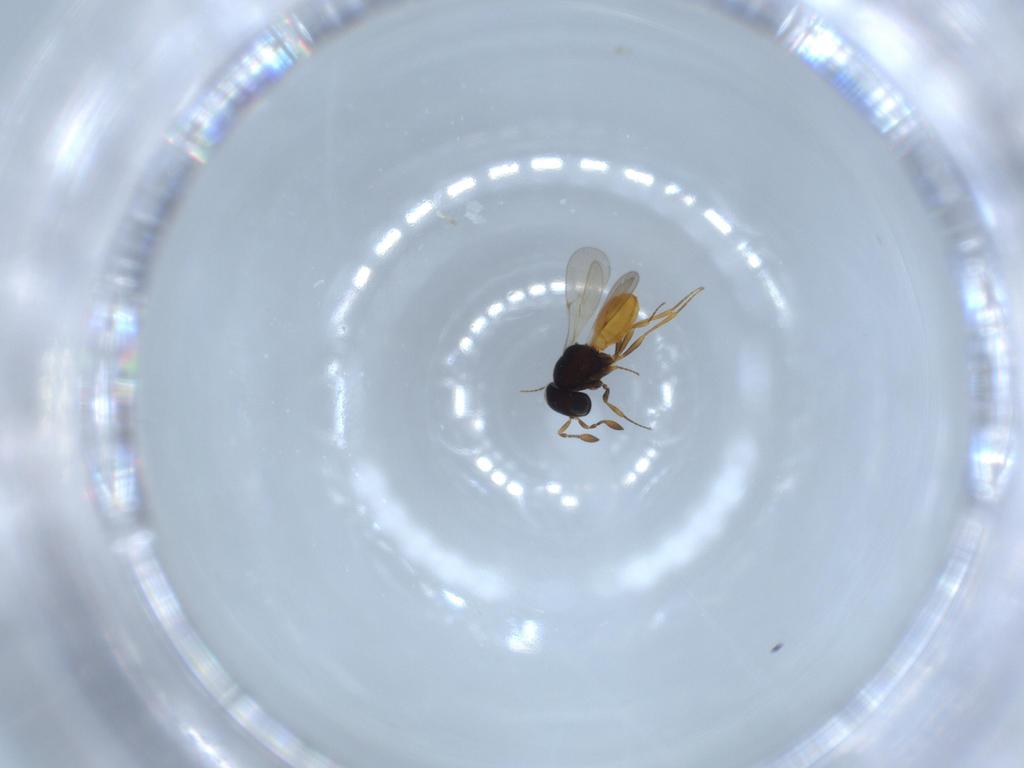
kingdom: Animalia
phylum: Arthropoda
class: Insecta
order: Hymenoptera
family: Scelionidae
